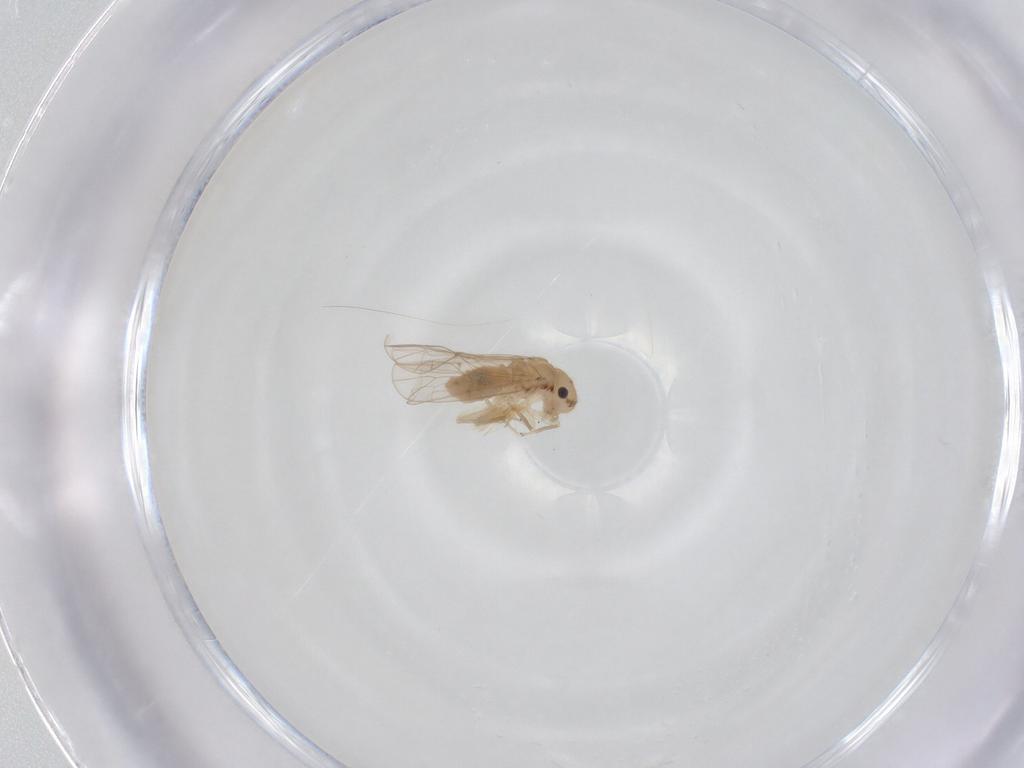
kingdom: Animalia
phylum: Arthropoda
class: Insecta
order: Psocodea
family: Ectopsocidae
